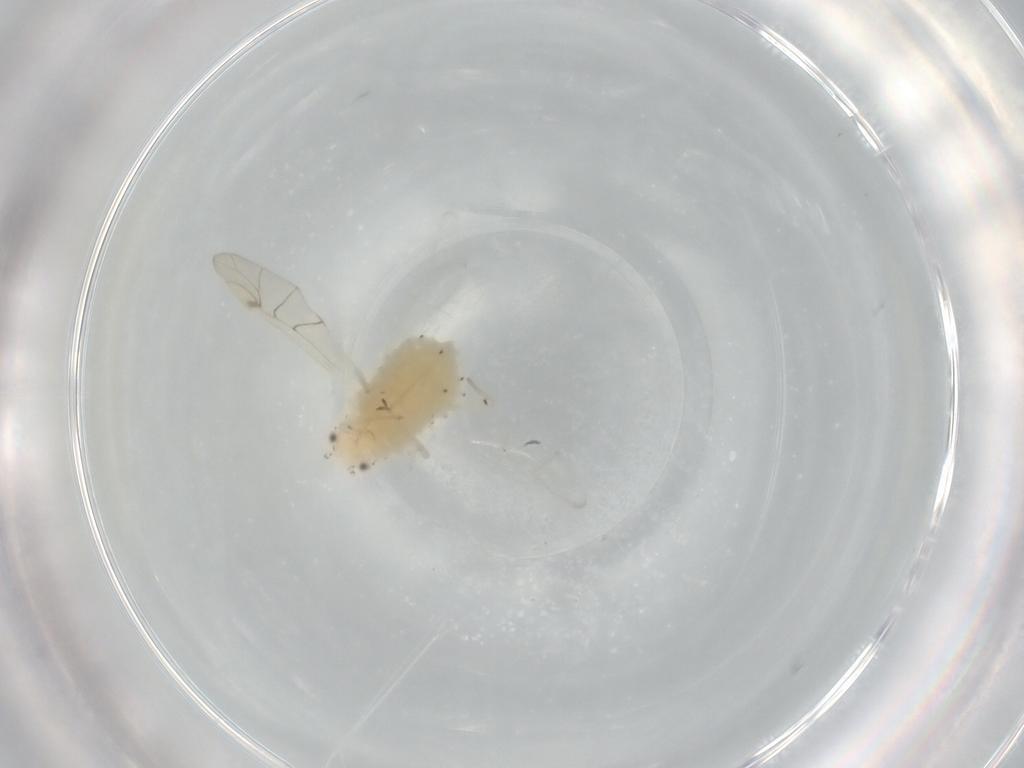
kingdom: Animalia
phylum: Arthropoda
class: Insecta
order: Hemiptera
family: Aphididae
